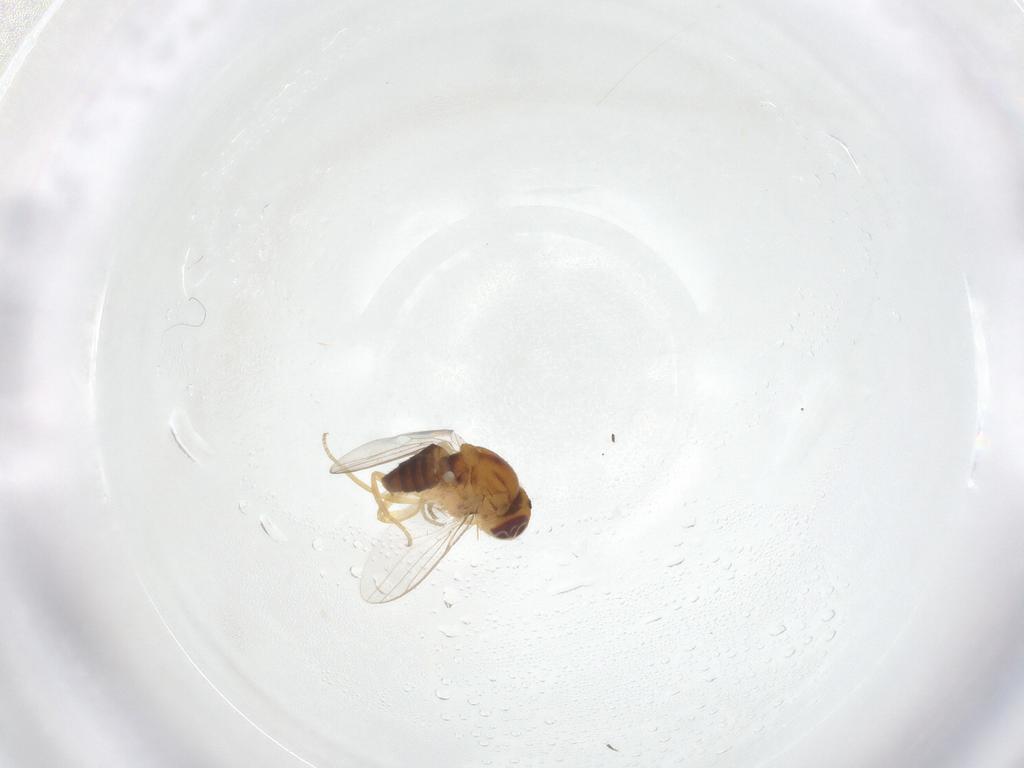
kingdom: Animalia
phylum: Arthropoda
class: Insecta
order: Diptera
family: Chloropidae
